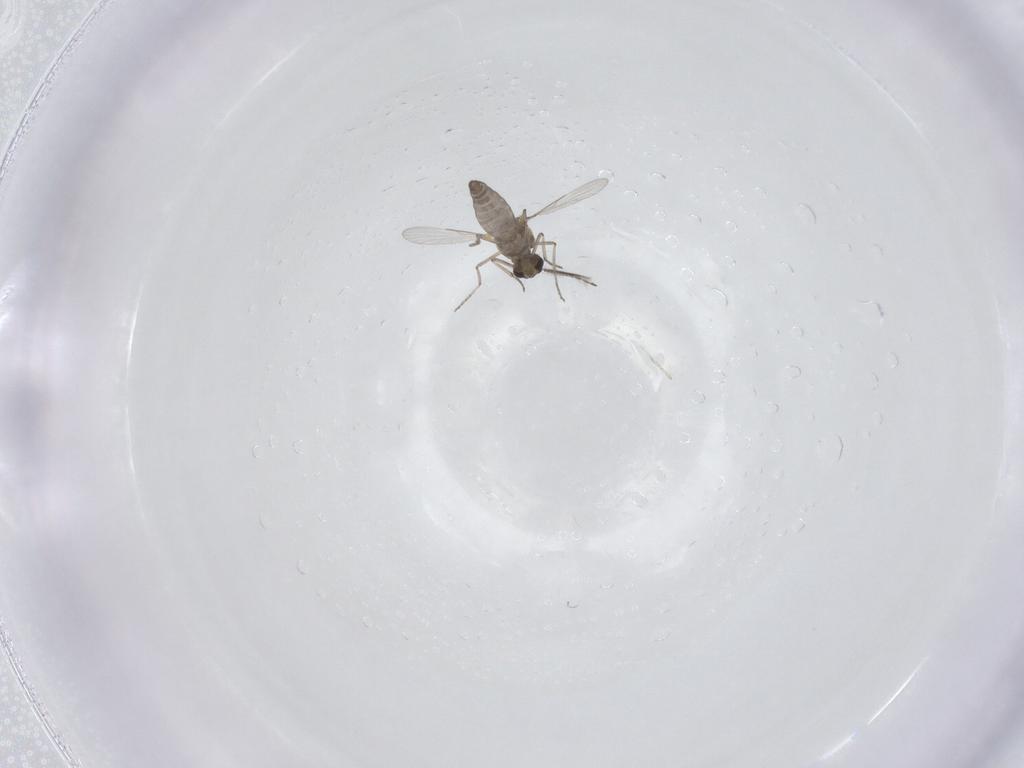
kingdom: Animalia
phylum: Arthropoda
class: Insecta
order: Diptera
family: Ceratopogonidae
